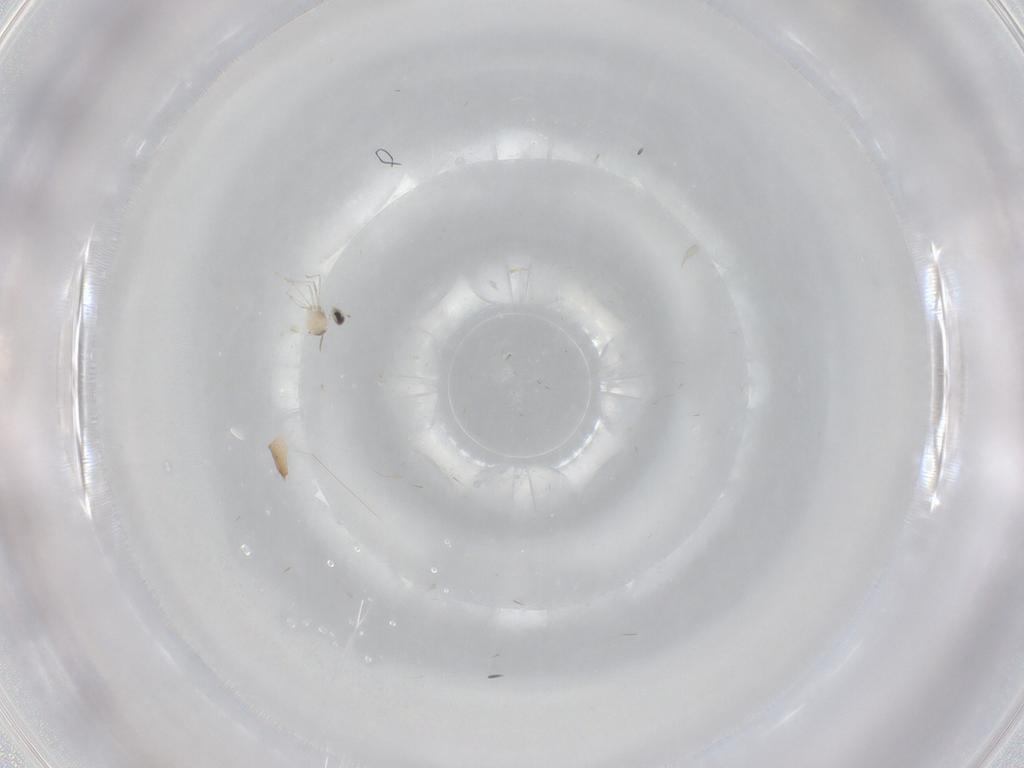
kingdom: Animalia
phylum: Arthropoda
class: Insecta
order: Diptera
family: Cecidomyiidae
